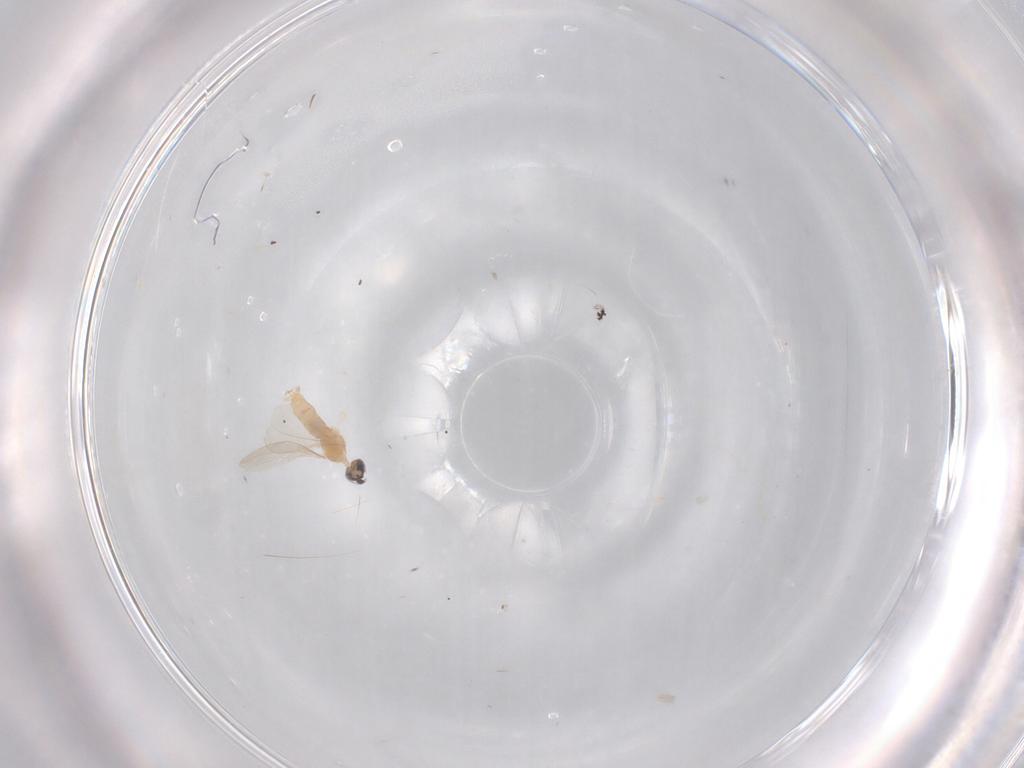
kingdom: Animalia
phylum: Arthropoda
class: Insecta
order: Diptera
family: Cecidomyiidae
